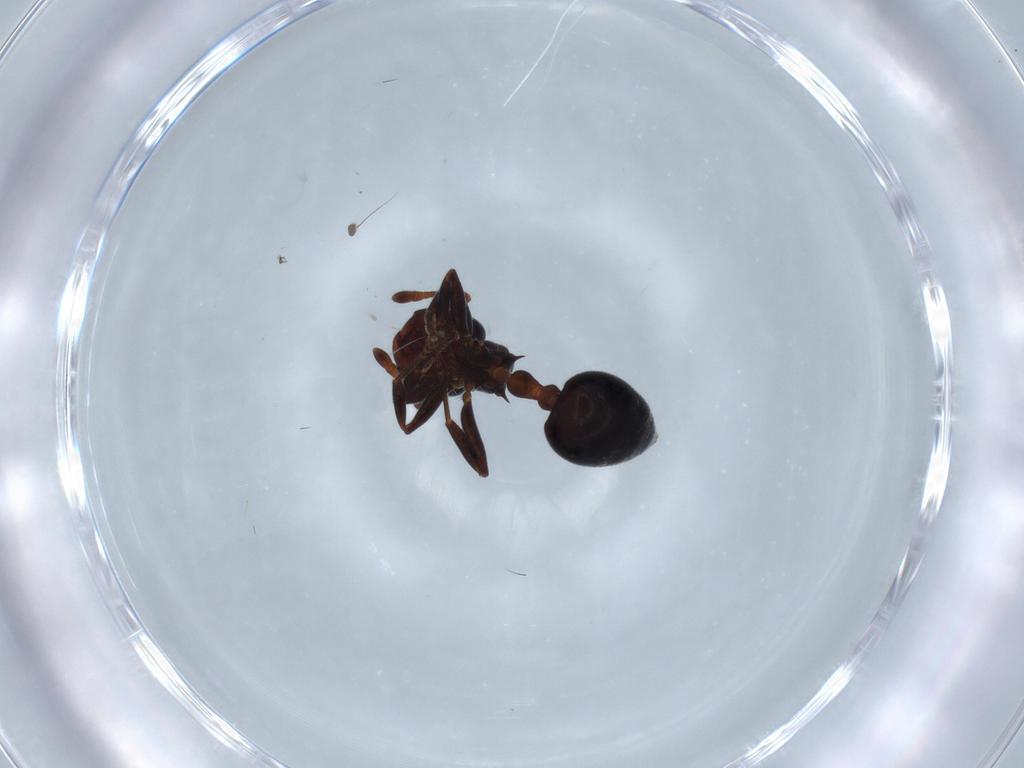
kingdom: Animalia
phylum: Arthropoda
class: Insecta
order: Hymenoptera
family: Formicidae
